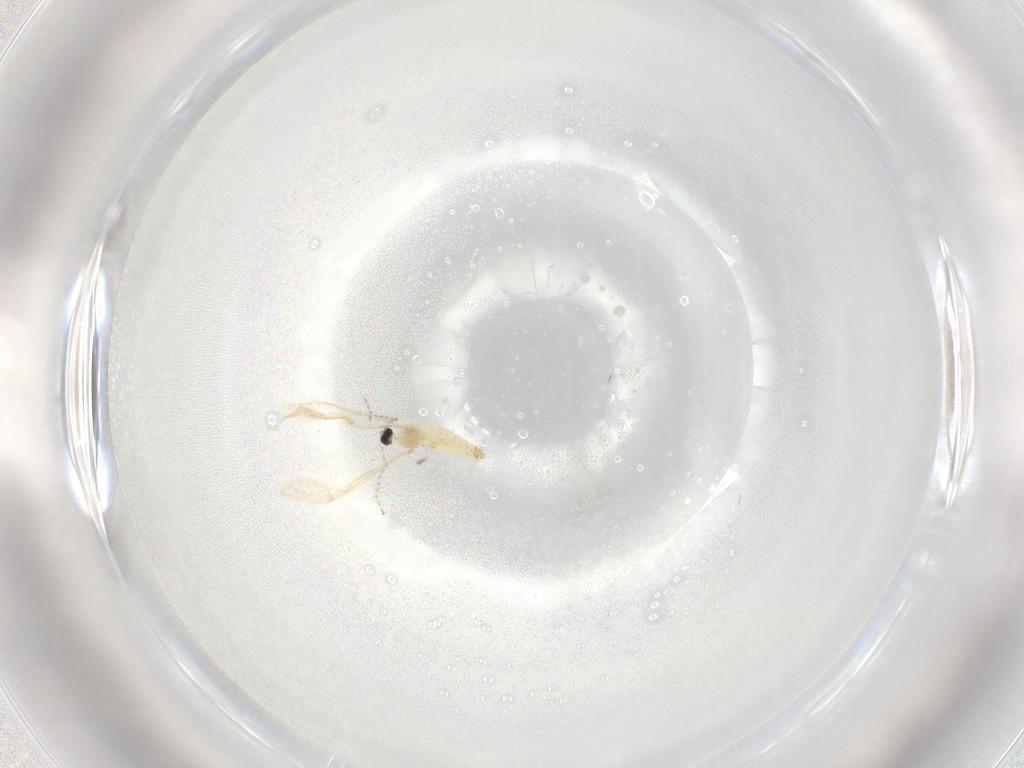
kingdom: Animalia
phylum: Arthropoda
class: Insecta
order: Diptera
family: Cecidomyiidae
